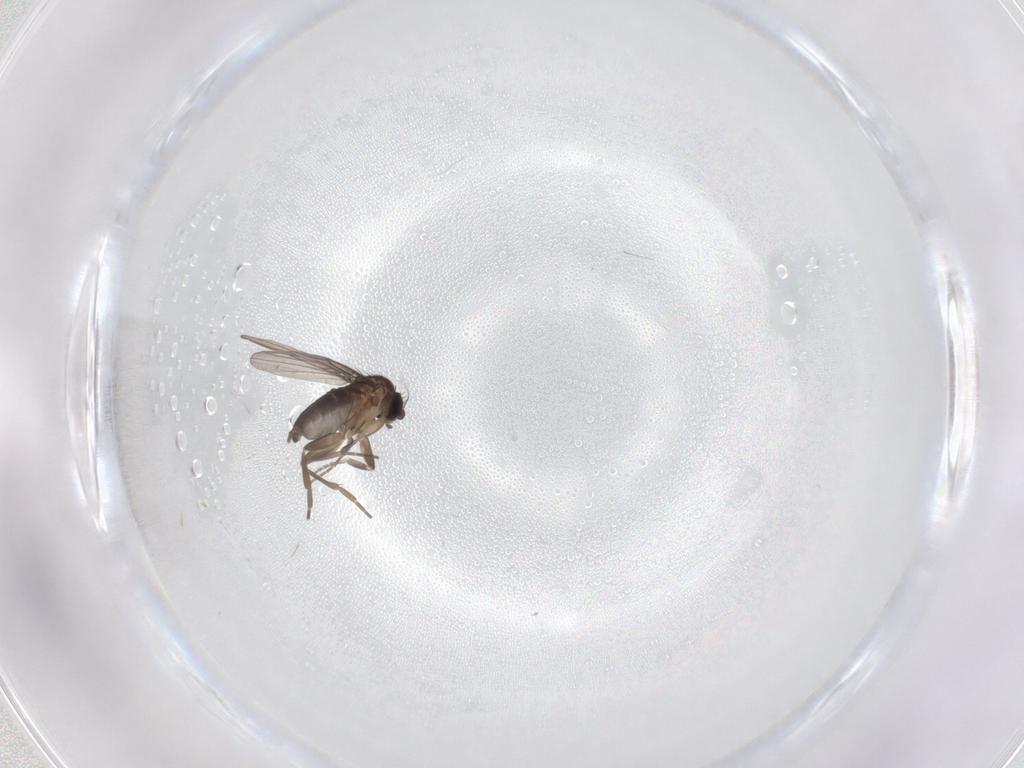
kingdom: Animalia
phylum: Arthropoda
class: Insecta
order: Diptera
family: Phoridae
